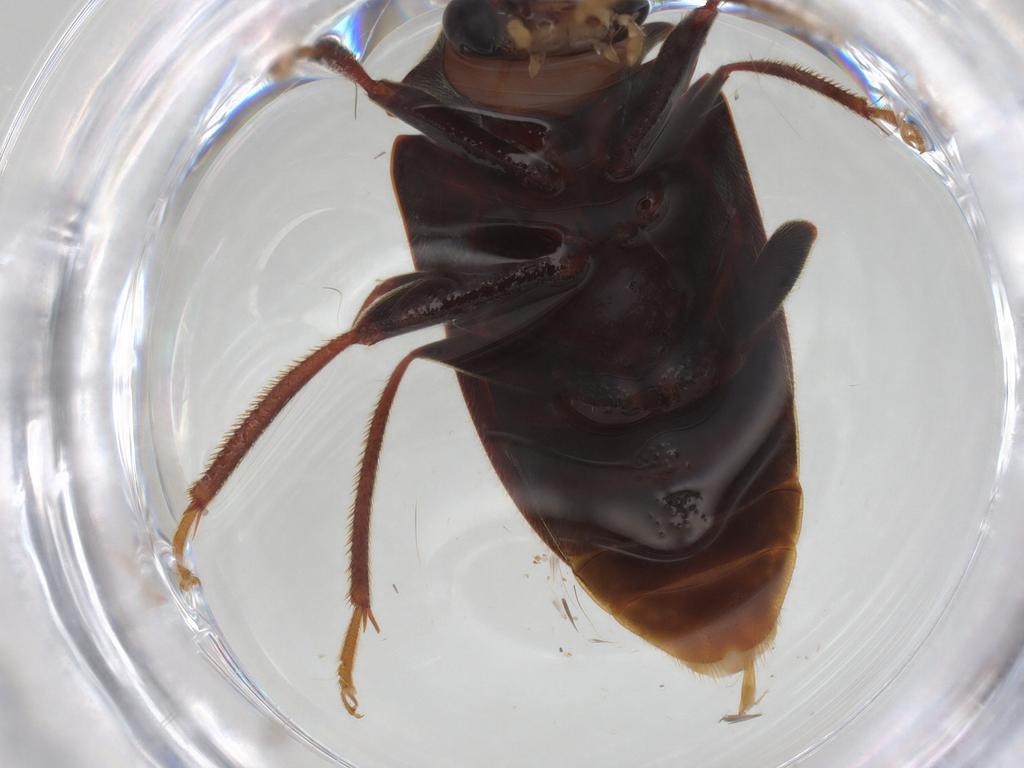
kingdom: Animalia
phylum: Arthropoda
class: Insecta
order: Coleoptera
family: Ptilodactylidae
